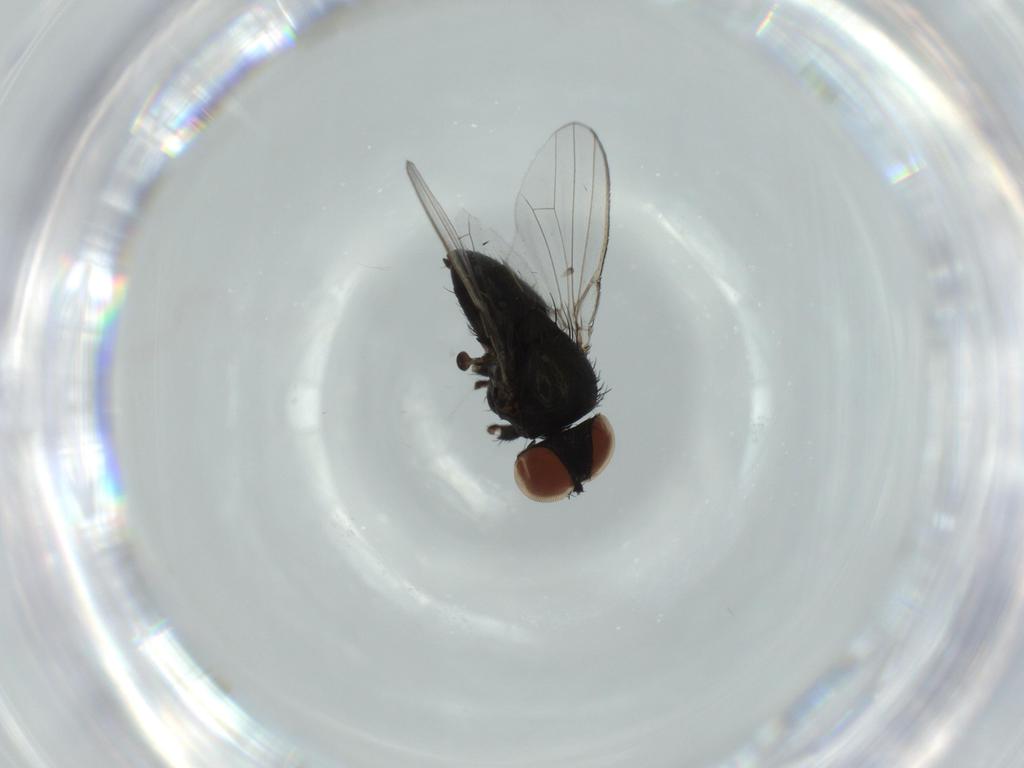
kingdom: Animalia
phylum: Arthropoda
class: Insecta
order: Diptera
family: Milichiidae
